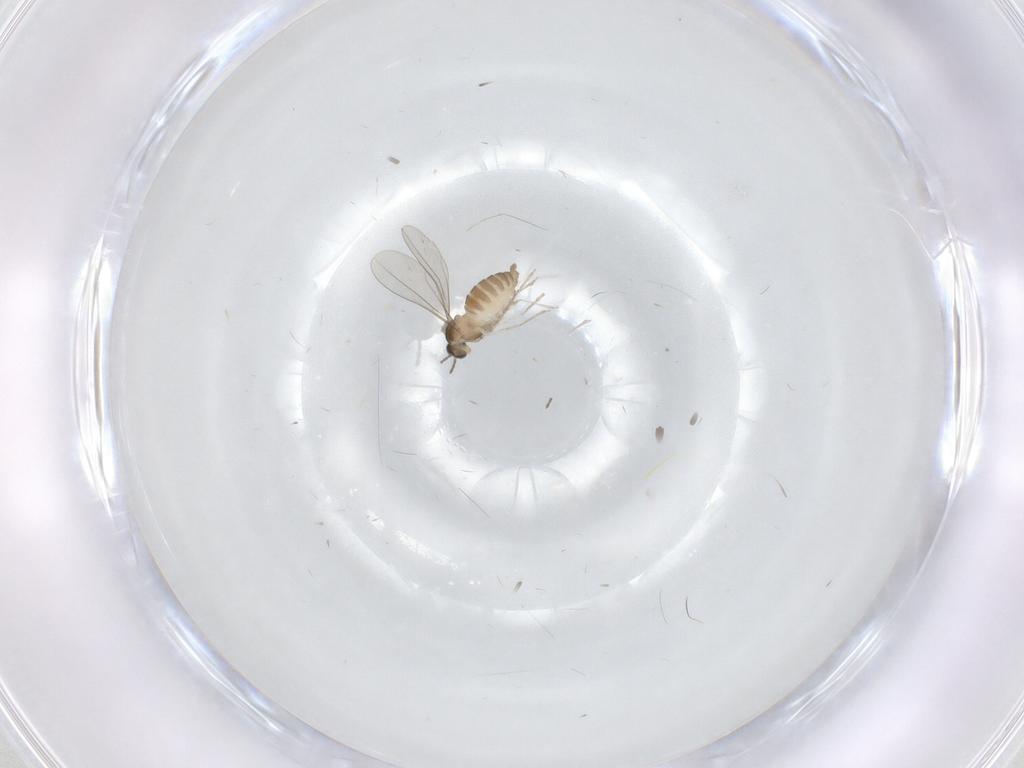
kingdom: Animalia
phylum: Arthropoda
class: Insecta
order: Diptera
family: Cecidomyiidae
